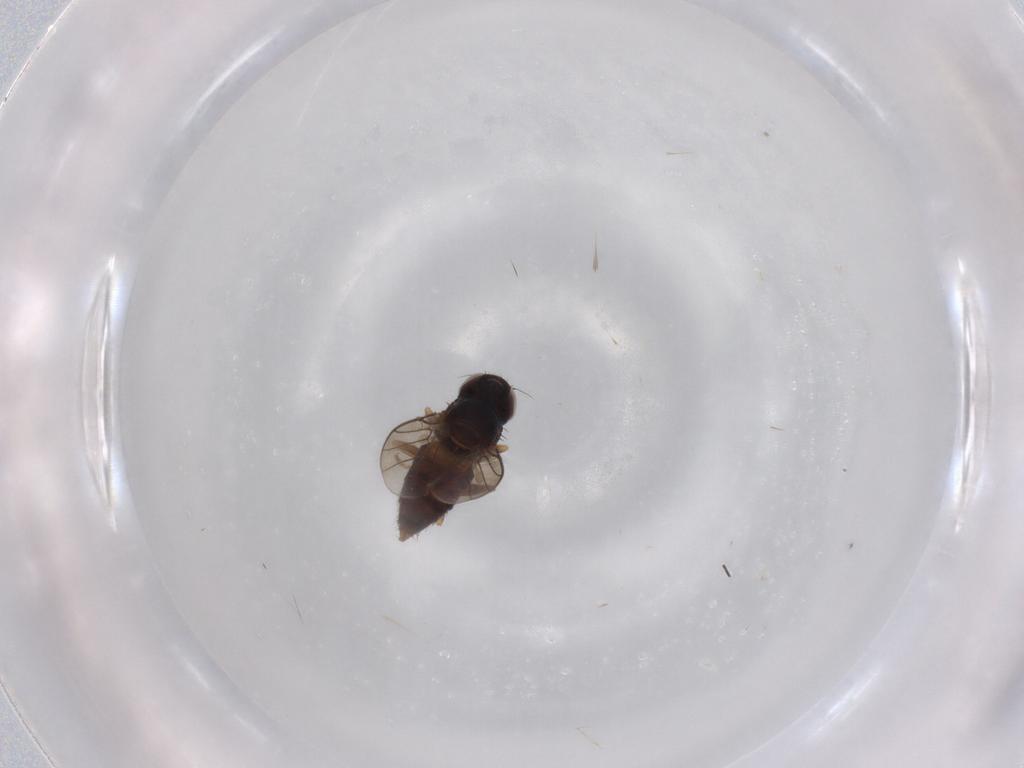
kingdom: Animalia
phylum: Arthropoda
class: Insecta
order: Diptera
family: Chloropidae
